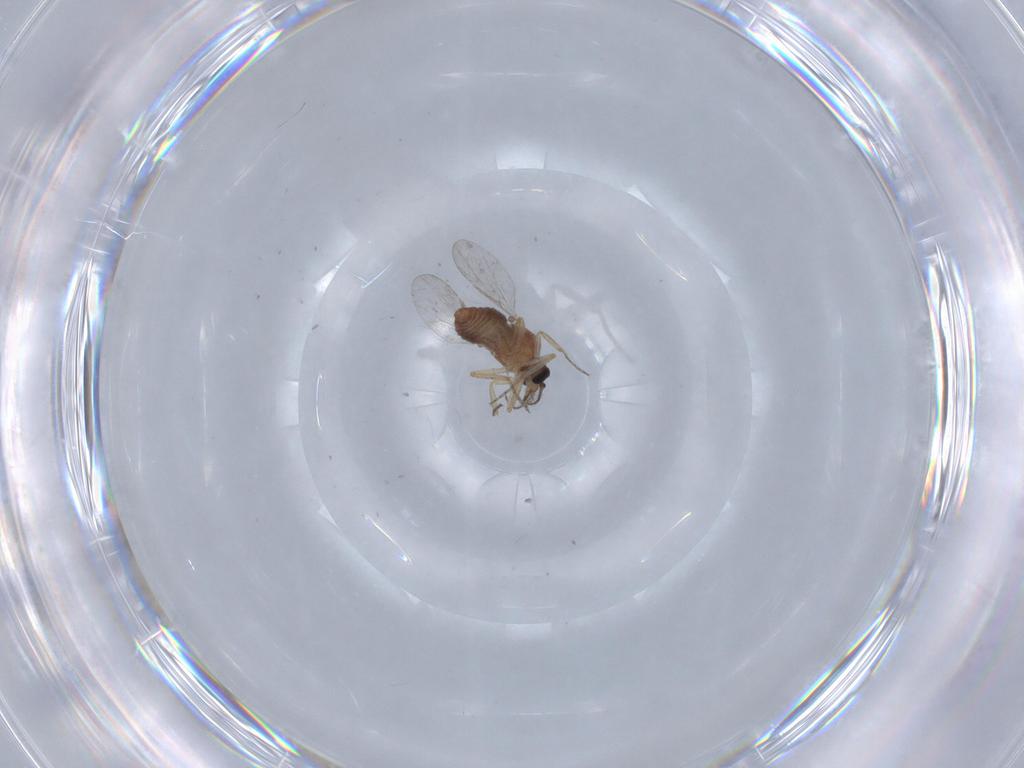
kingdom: Animalia
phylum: Arthropoda
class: Insecta
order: Diptera
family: Ceratopogonidae
